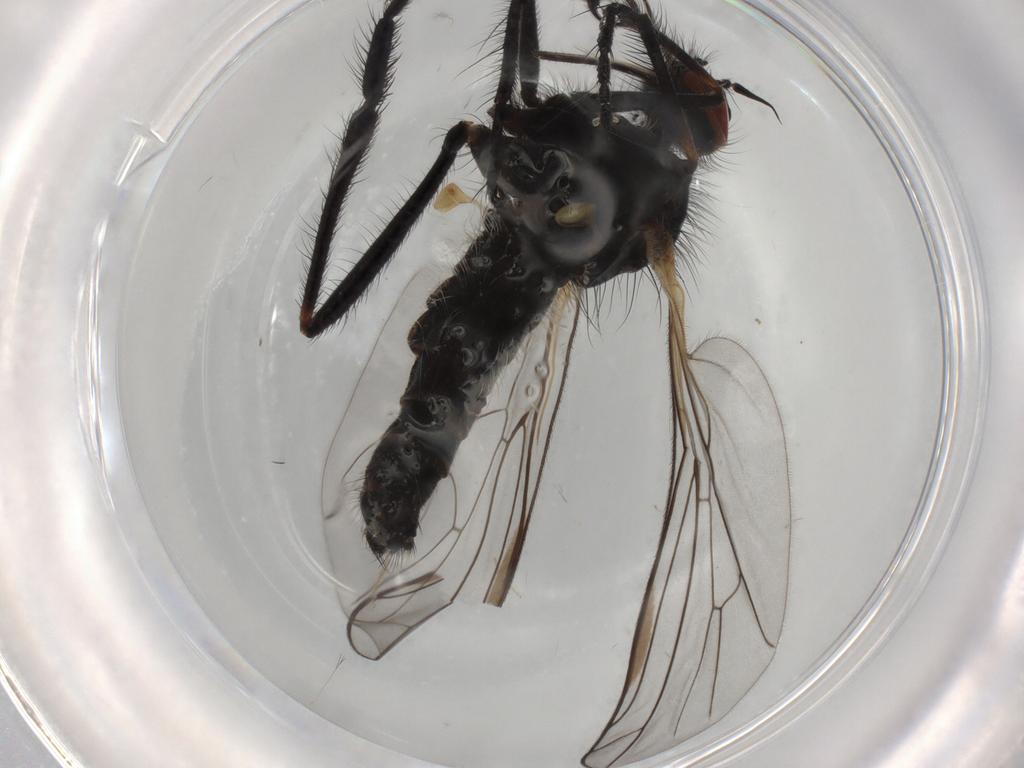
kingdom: Animalia
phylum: Arthropoda
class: Insecta
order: Diptera
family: Empididae
